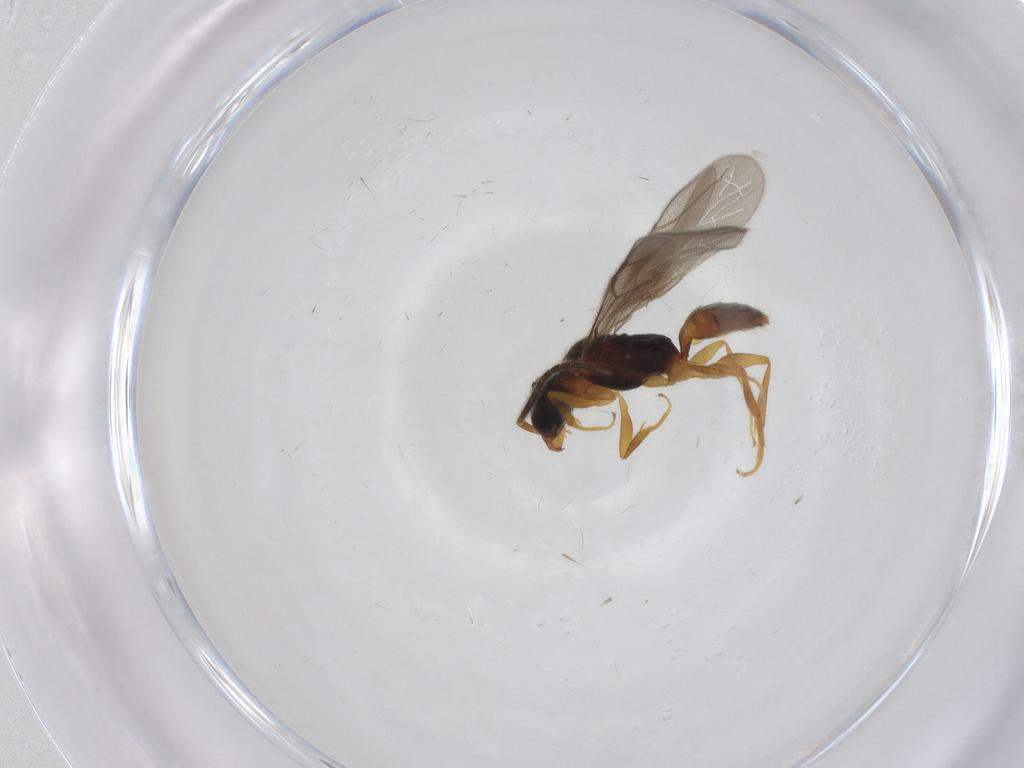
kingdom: Animalia
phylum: Arthropoda
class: Insecta
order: Hymenoptera
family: Bethylidae
